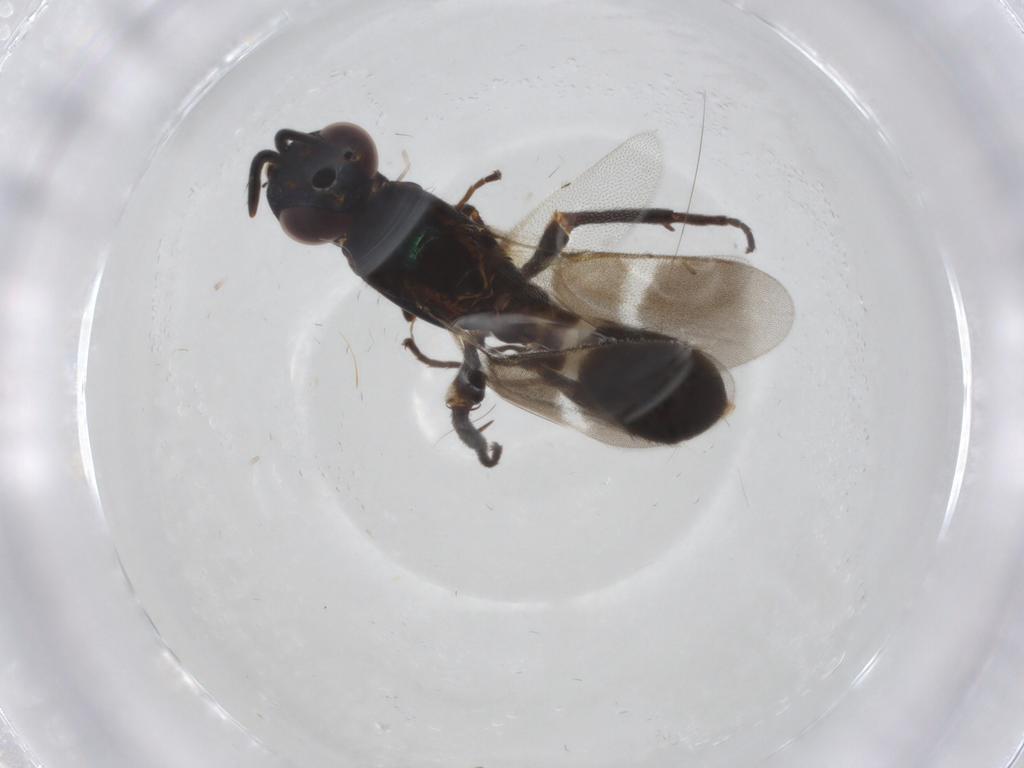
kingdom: Animalia
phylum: Arthropoda
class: Insecta
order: Hymenoptera
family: Eupelmidae
